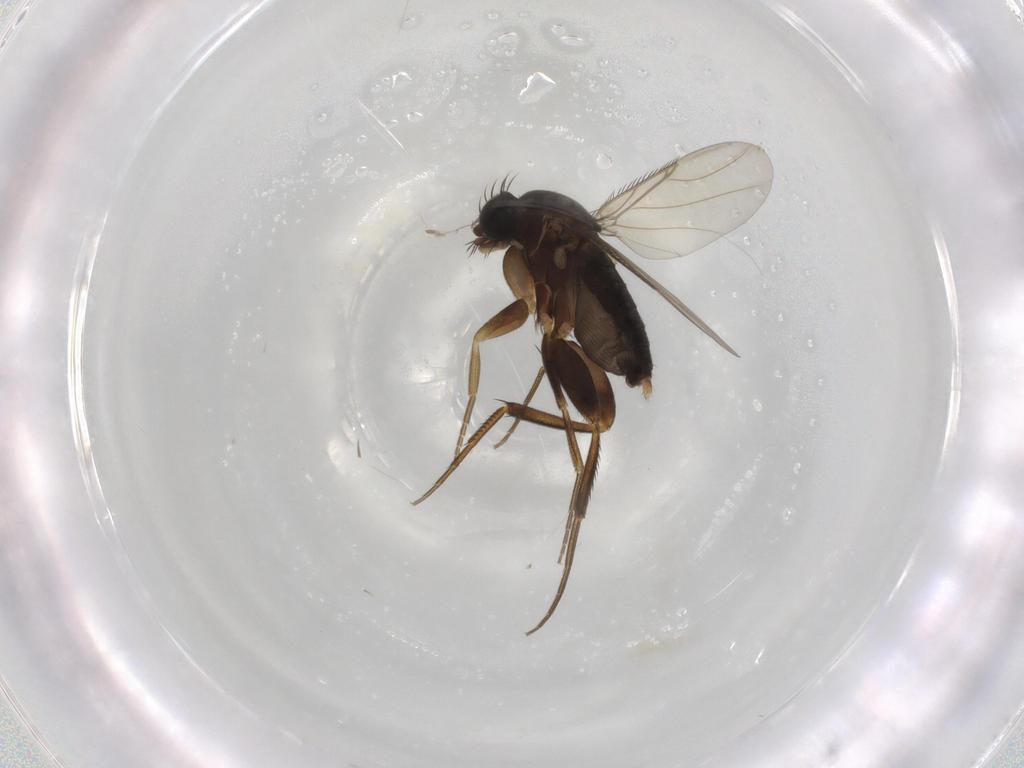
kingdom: Animalia
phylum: Arthropoda
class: Insecta
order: Diptera
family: Phoridae
